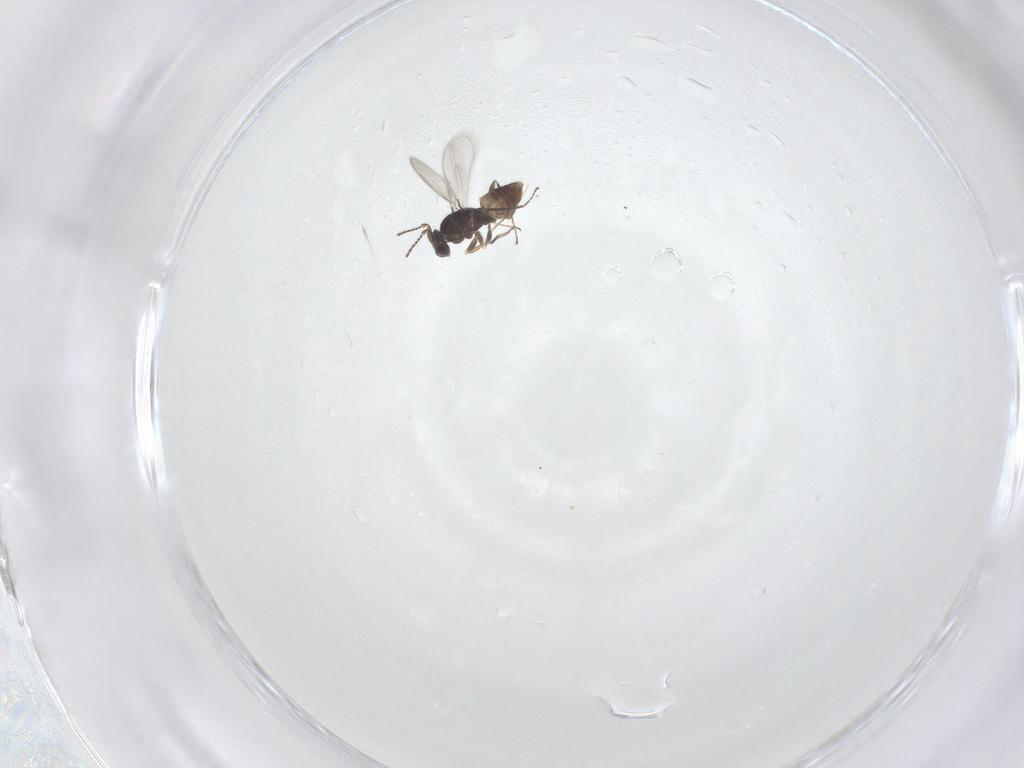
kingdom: Animalia
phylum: Arthropoda
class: Insecta
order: Hymenoptera
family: Mymaridae
